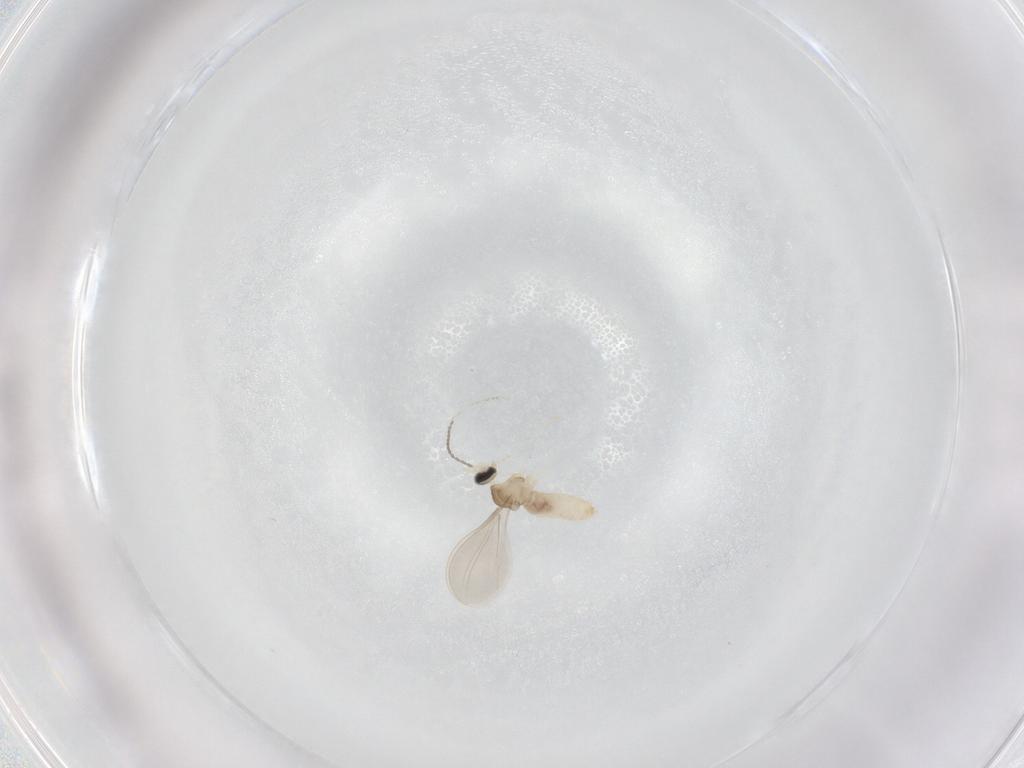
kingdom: Animalia
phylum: Arthropoda
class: Insecta
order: Diptera
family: Cecidomyiidae
